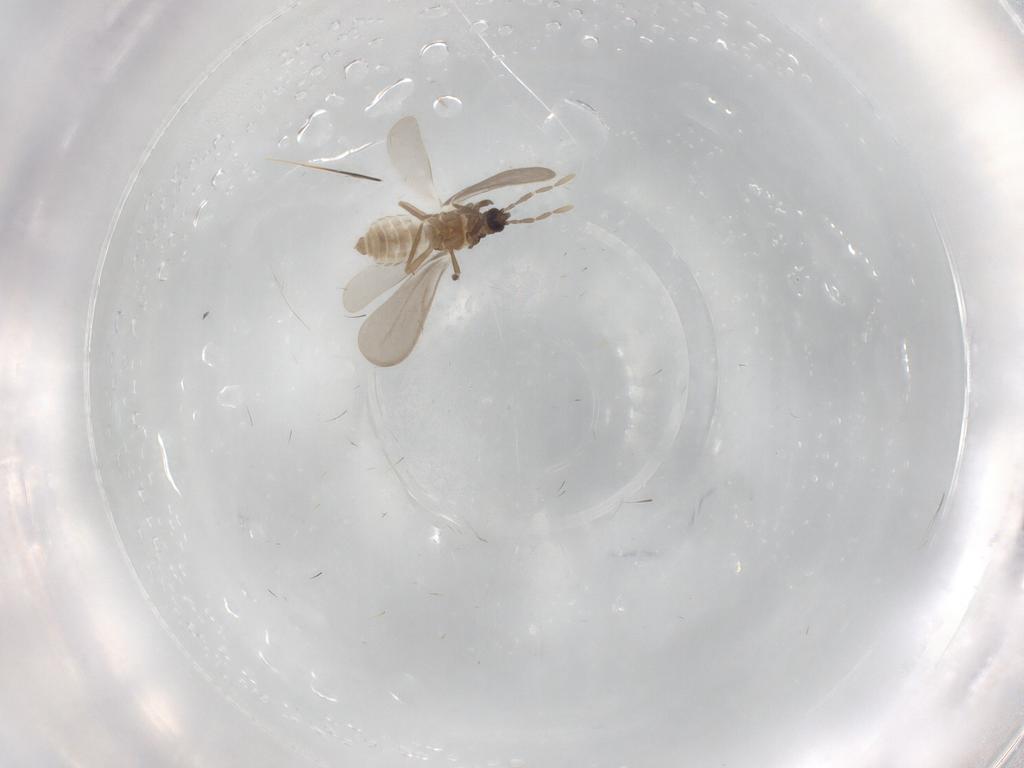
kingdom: Animalia
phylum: Arthropoda
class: Insecta
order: Hemiptera
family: Enicocephalidae
